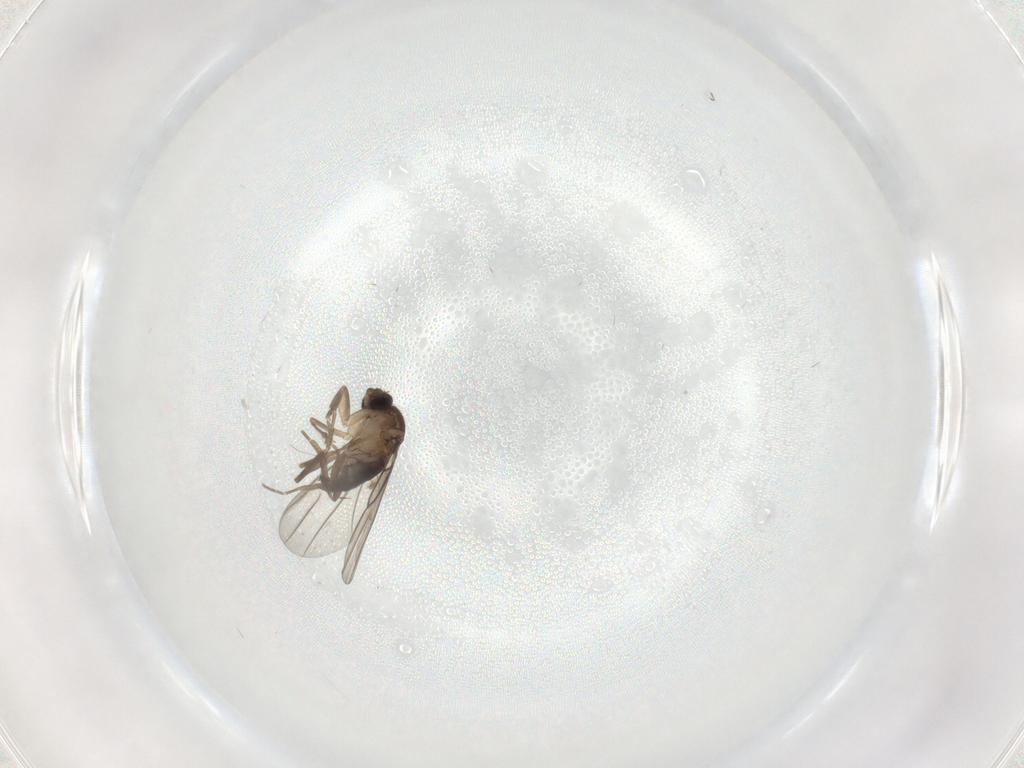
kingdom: Animalia
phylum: Arthropoda
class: Insecta
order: Diptera
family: Phoridae
